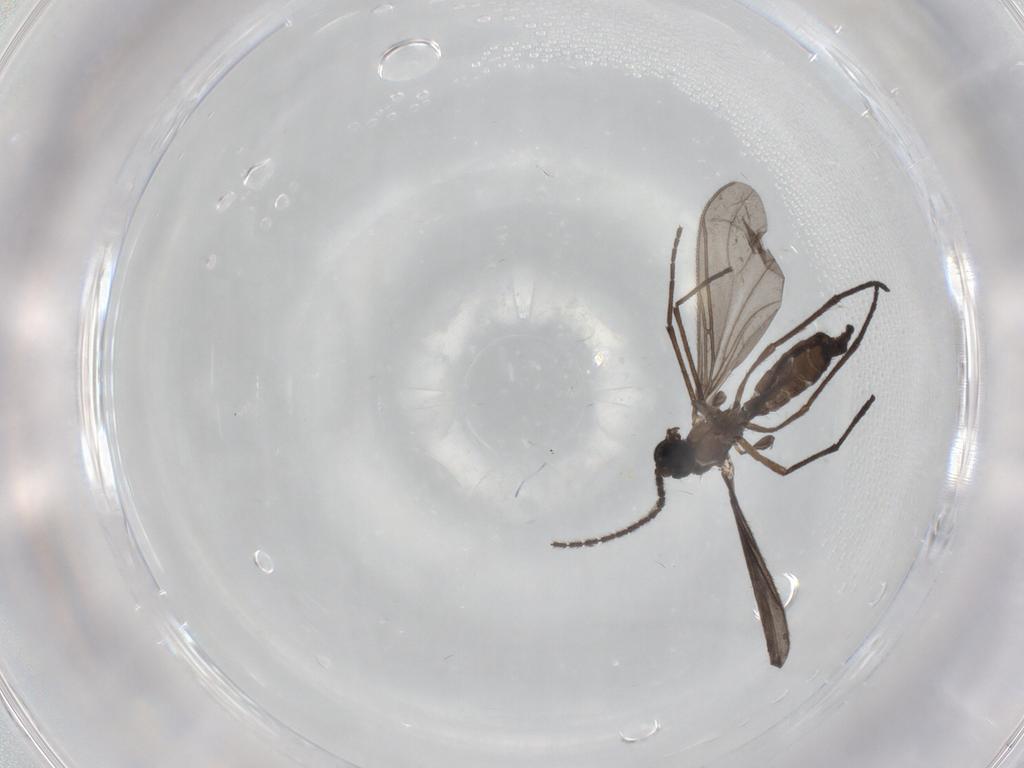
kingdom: Animalia
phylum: Arthropoda
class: Insecta
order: Diptera
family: Sciaridae
